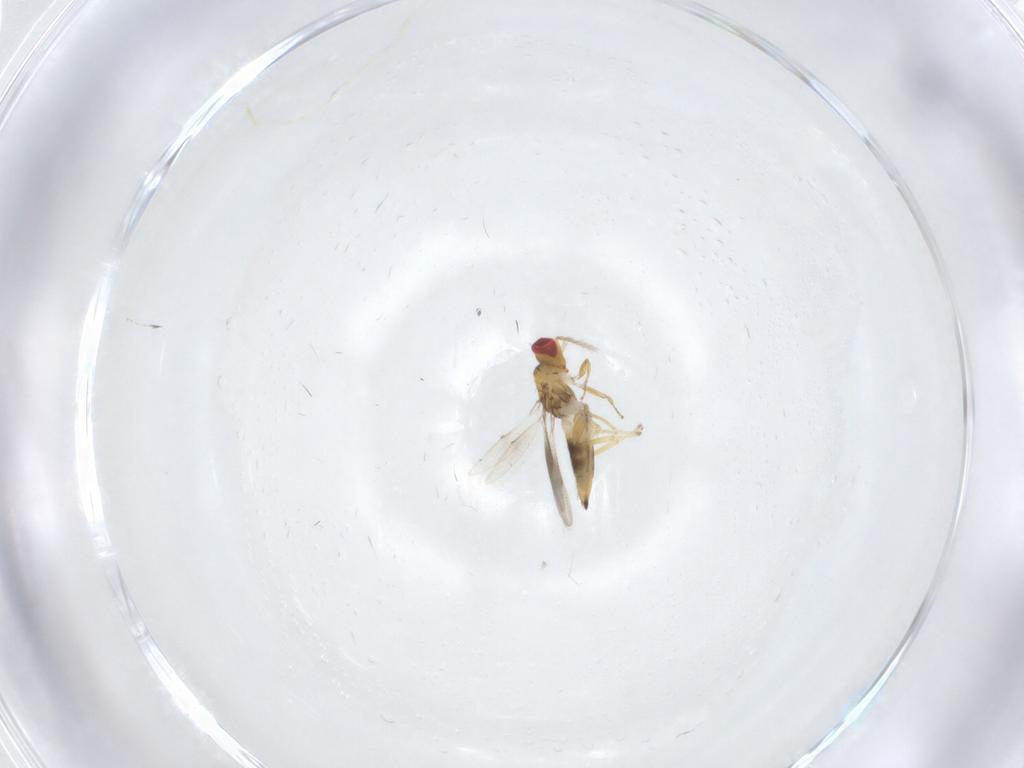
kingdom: Animalia
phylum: Arthropoda
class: Insecta
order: Hymenoptera
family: Eulophidae
